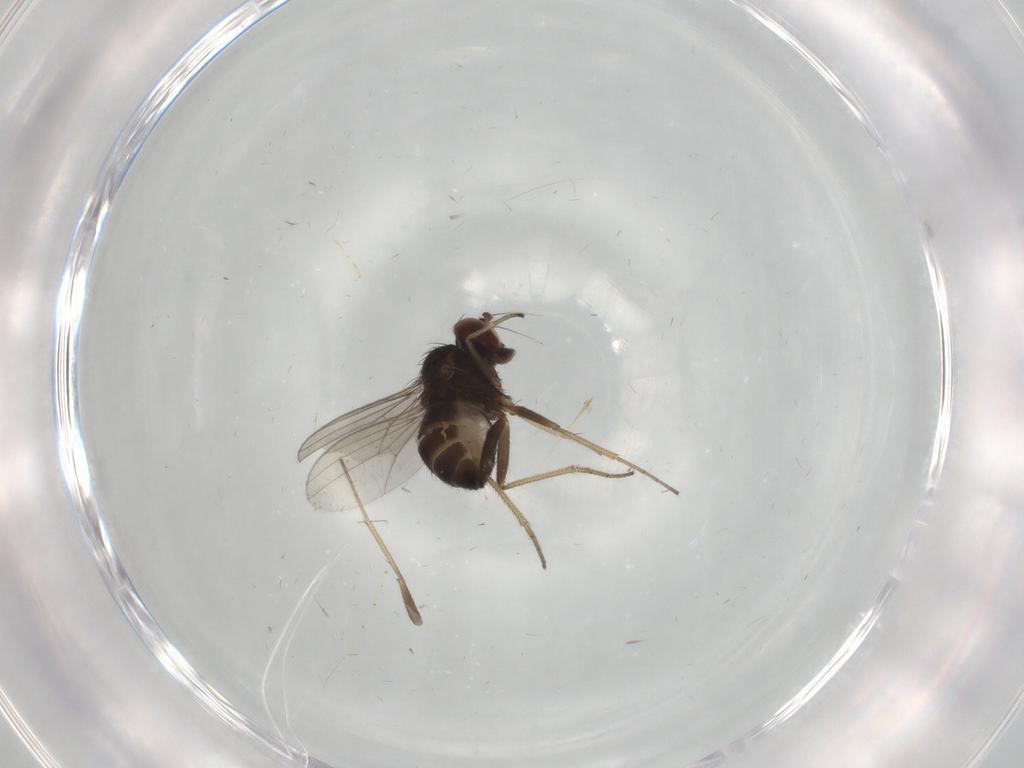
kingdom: Animalia
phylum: Arthropoda
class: Insecta
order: Diptera
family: Dolichopodidae
